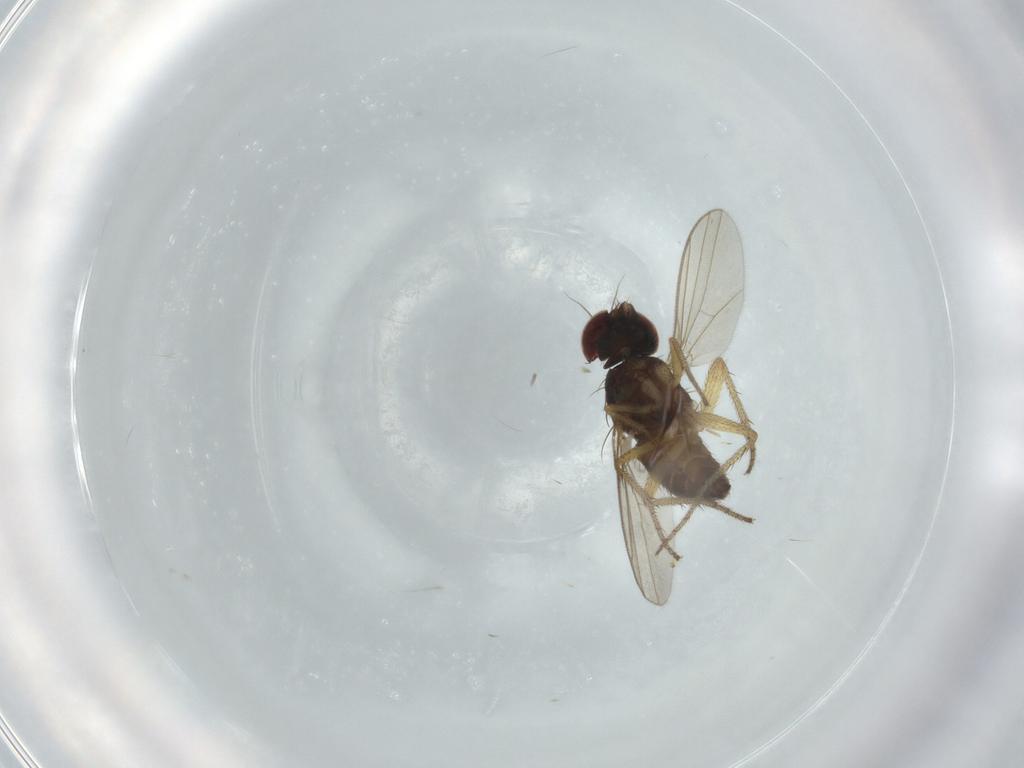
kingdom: Animalia
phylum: Arthropoda
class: Insecta
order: Diptera
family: Dolichopodidae
